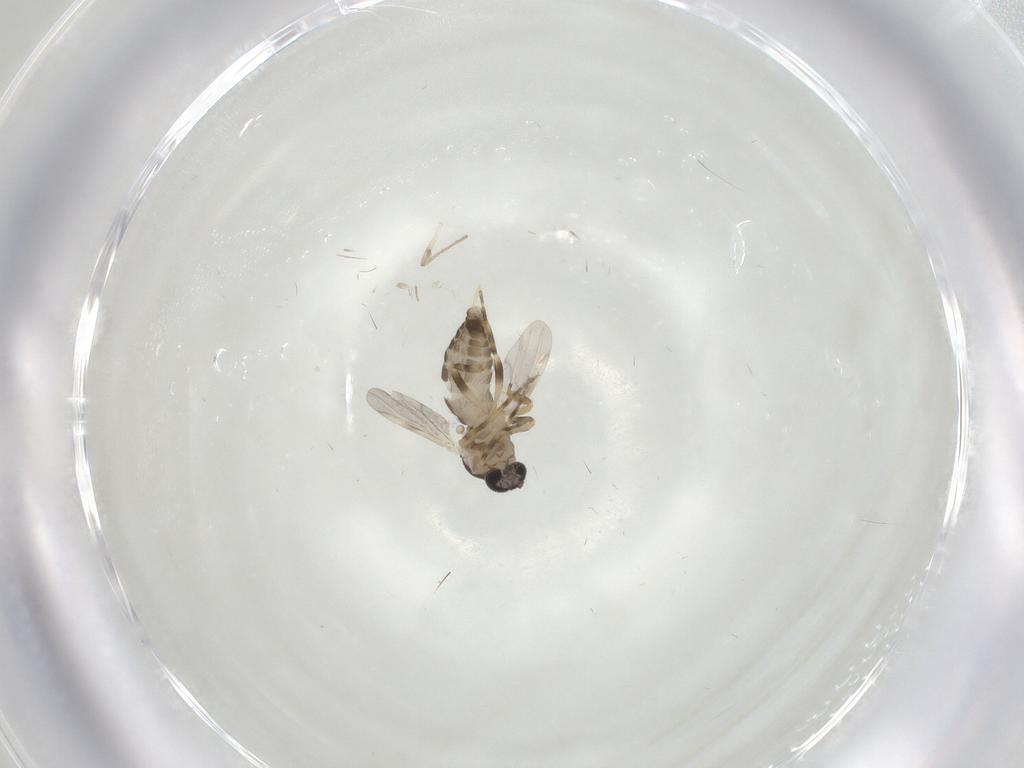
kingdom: Animalia
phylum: Arthropoda
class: Insecta
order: Diptera
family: Ceratopogonidae
